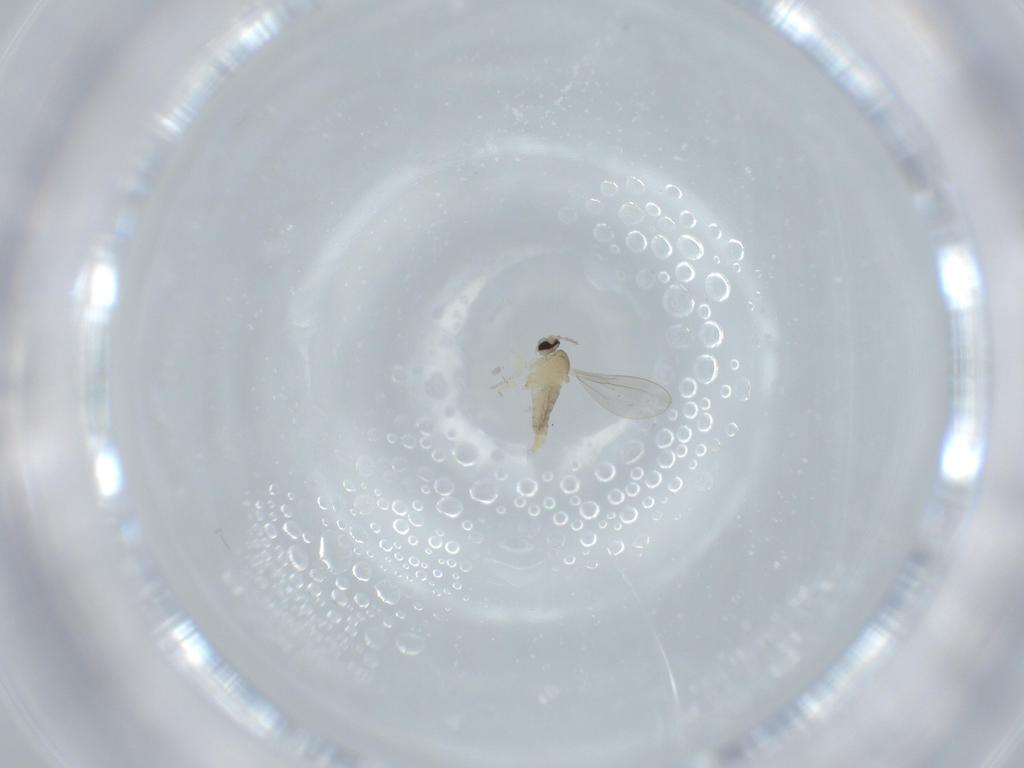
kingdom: Animalia
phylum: Arthropoda
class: Insecta
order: Diptera
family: Cecidomyiidae
